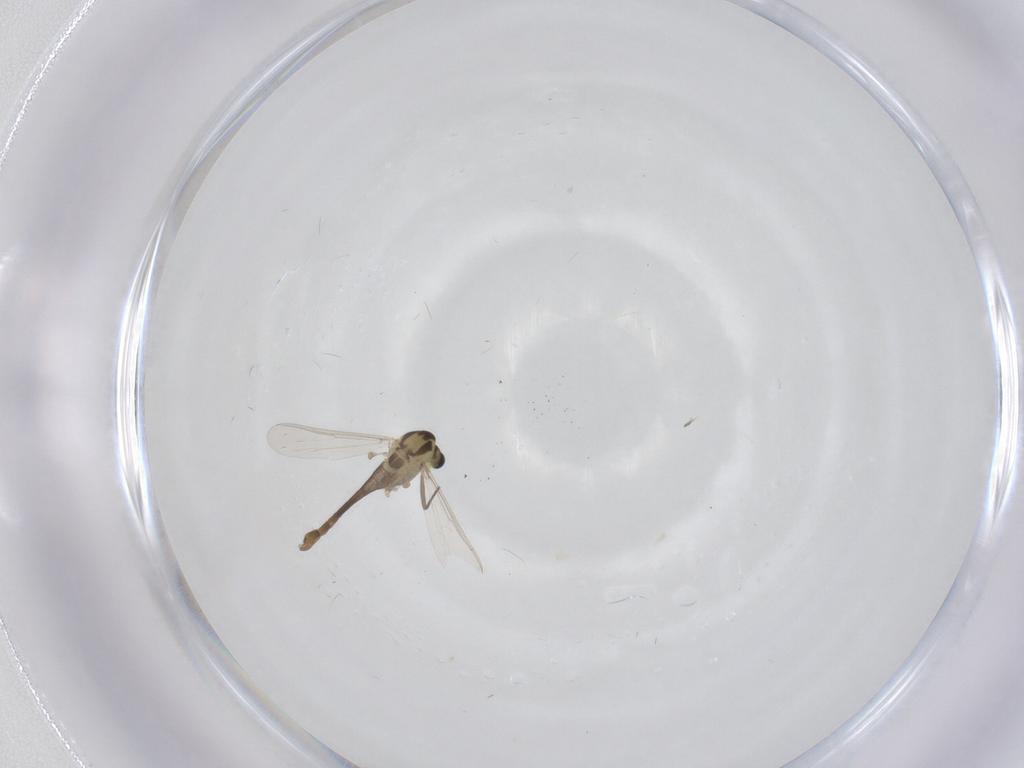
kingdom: Animalia
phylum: Arthropoda
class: Insecta
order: Diptera
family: Chironomidae
